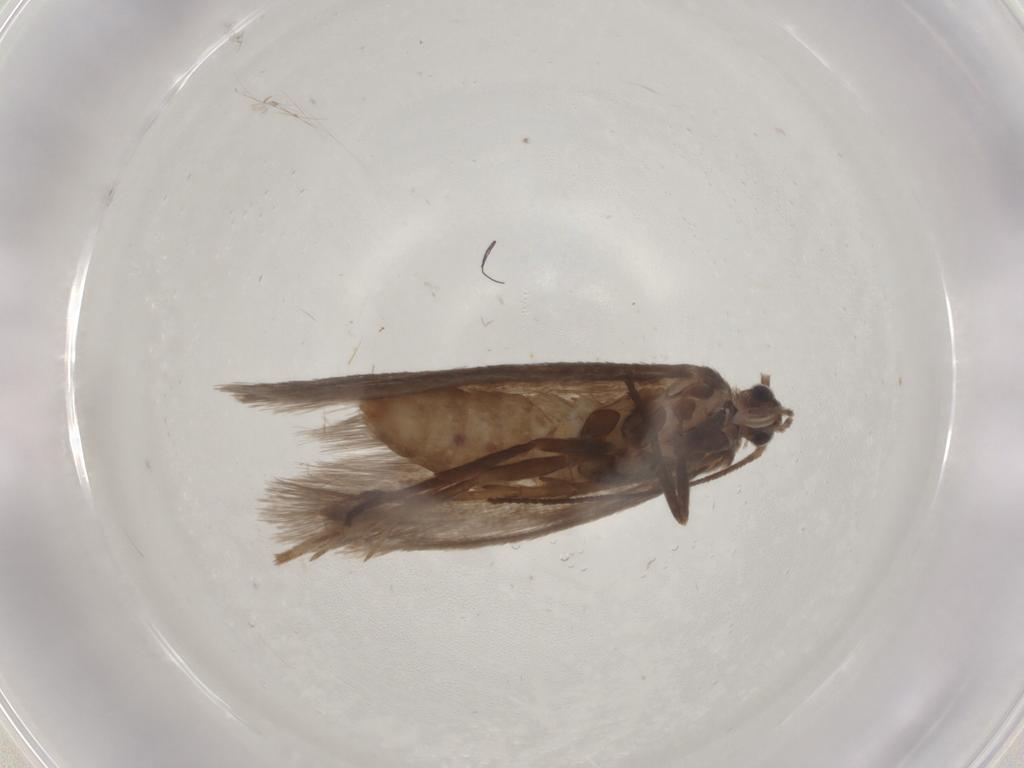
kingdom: Animalia
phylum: Arthropoda
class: Insecta
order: Lepidoptera
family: Limacodidae
